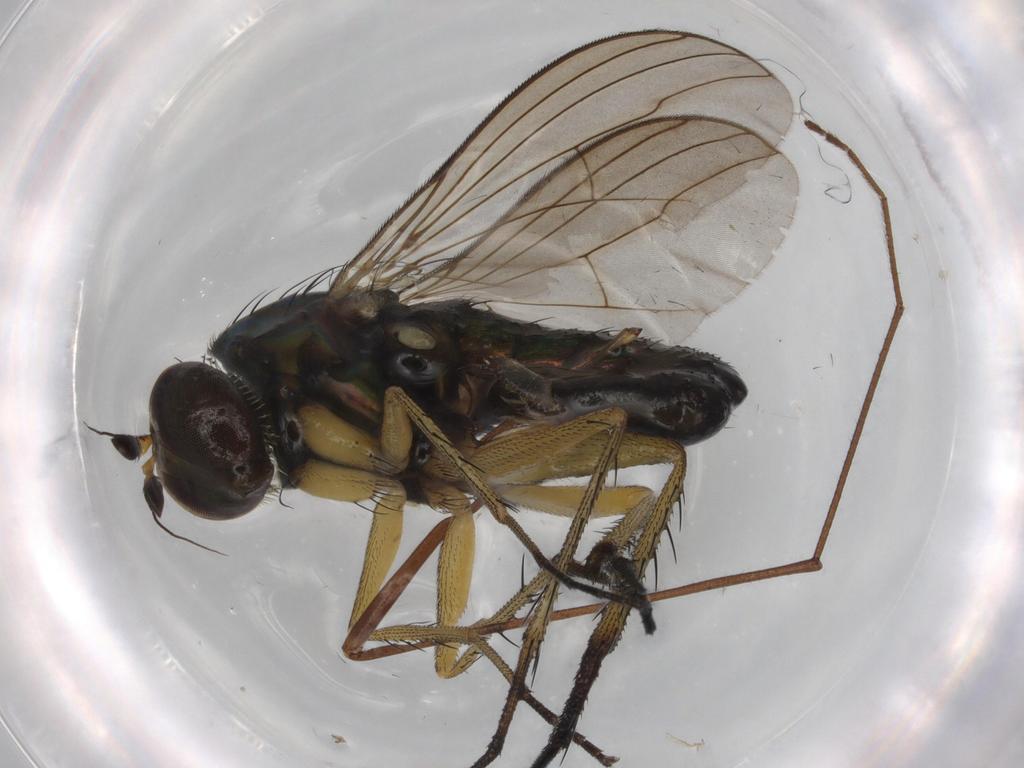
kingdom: Animalia
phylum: Arthropoda
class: Insecta
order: Diptera
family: Dolichopodidae
